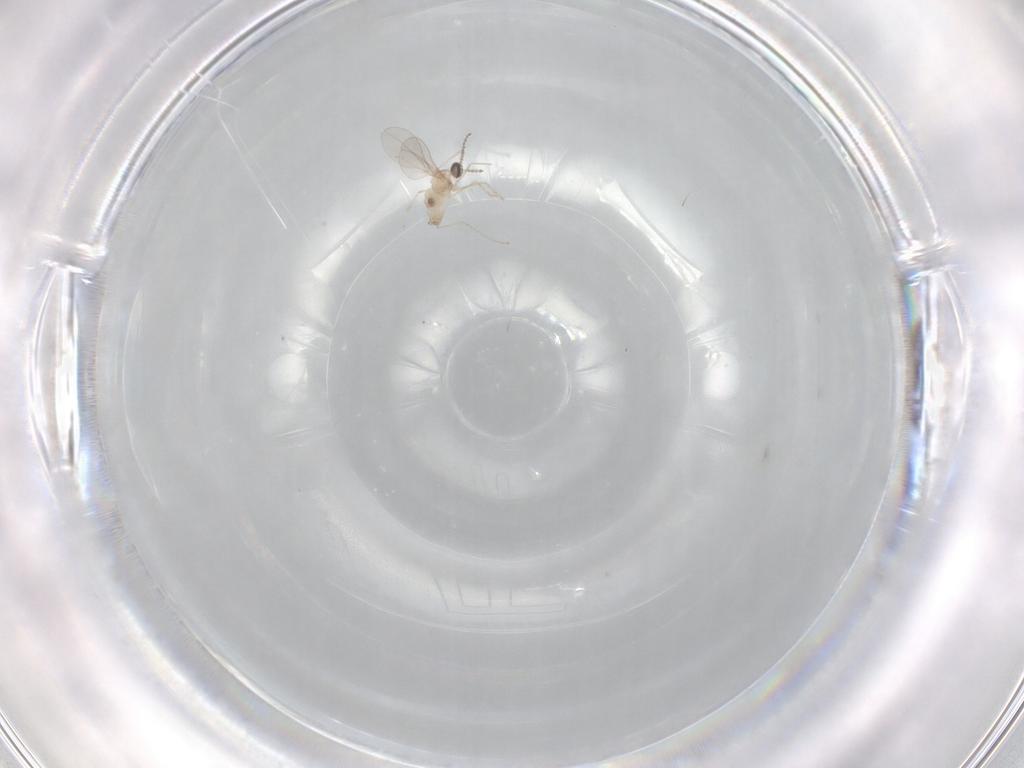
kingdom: Animalia
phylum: Arthropoda
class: Insecta
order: Diptera
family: Cecidomyiidae
